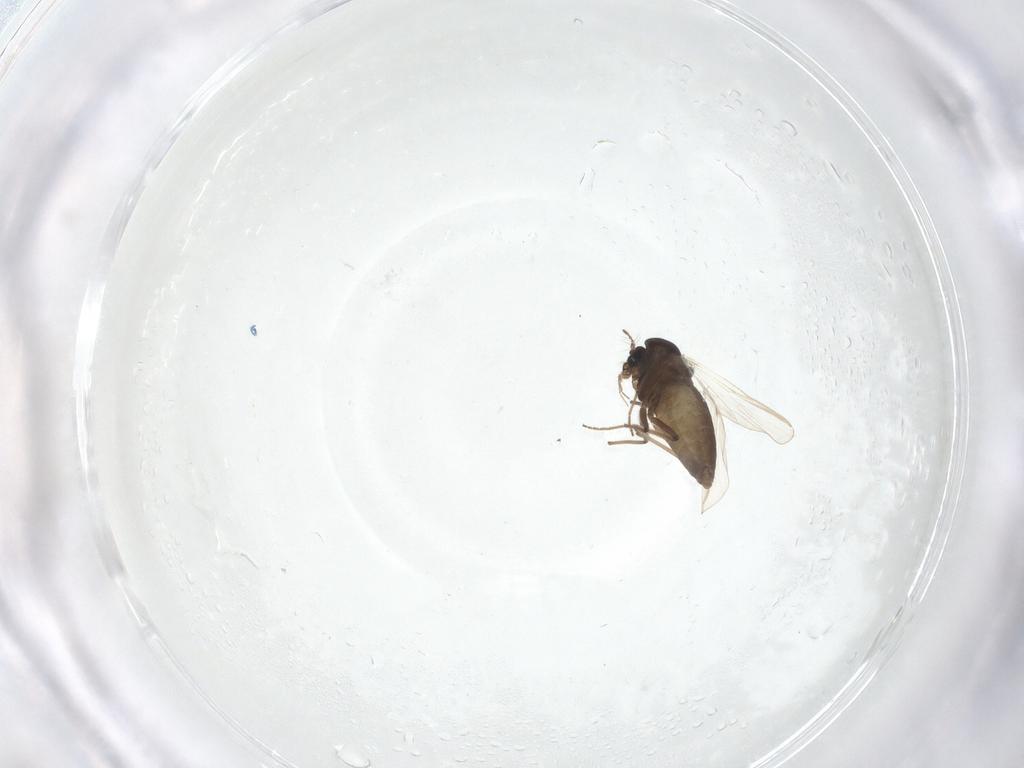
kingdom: Animalia
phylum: Arthropoda
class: Insecta
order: Diptera
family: Chironomidae
